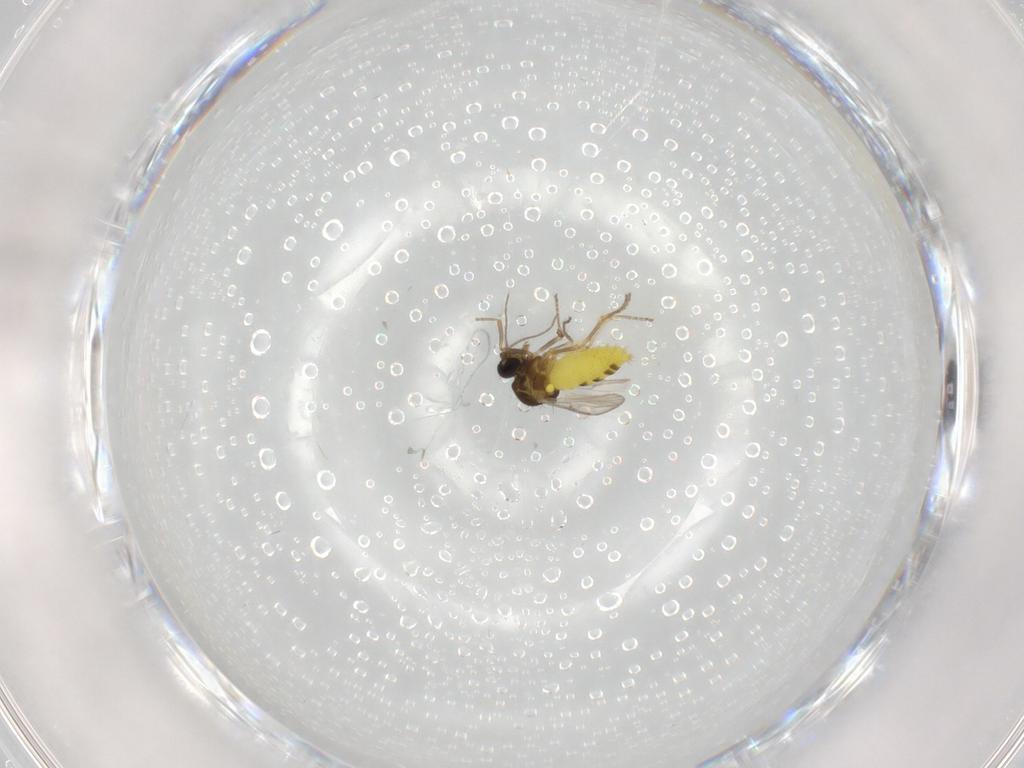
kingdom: Animalia
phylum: Arthropoda
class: Insecta
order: Diptera
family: Ceratopogonidae
